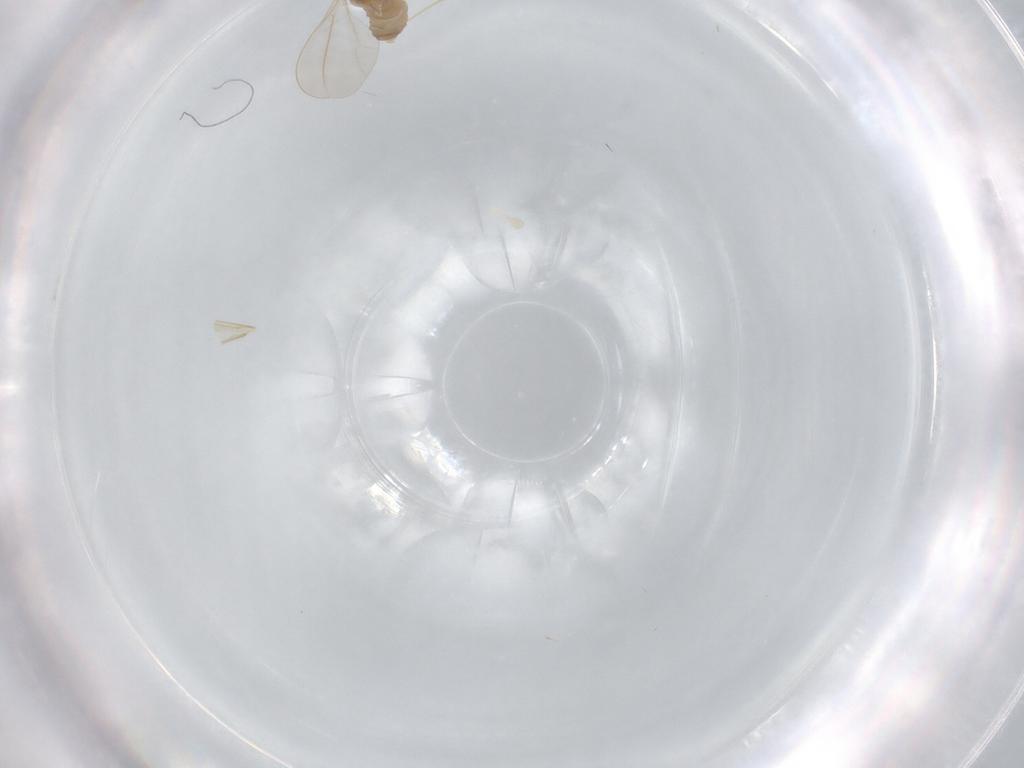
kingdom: Animalia
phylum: Arthropoda
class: Insecta
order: Diptera
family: Cecidomyiidae
